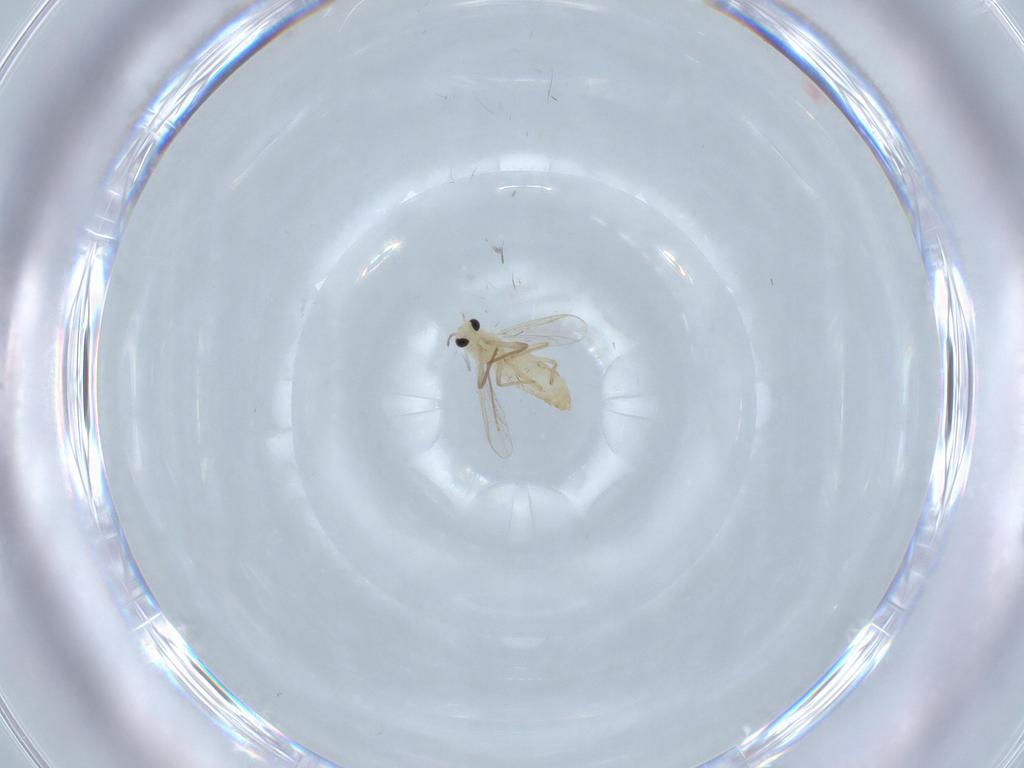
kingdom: Animalia
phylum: Arthropoda
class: Insecta
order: Diptera
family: Chironomidae
